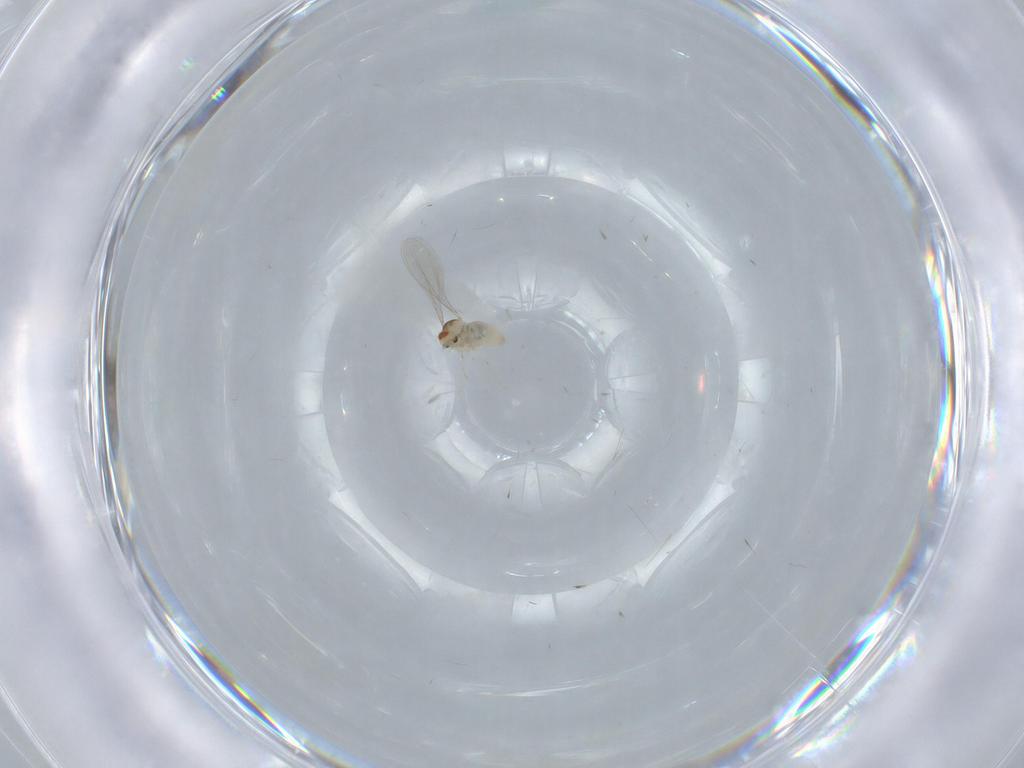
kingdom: Animalia
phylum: Arthropoda
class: Insecta
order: Diptera
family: Cecidomyiidae
